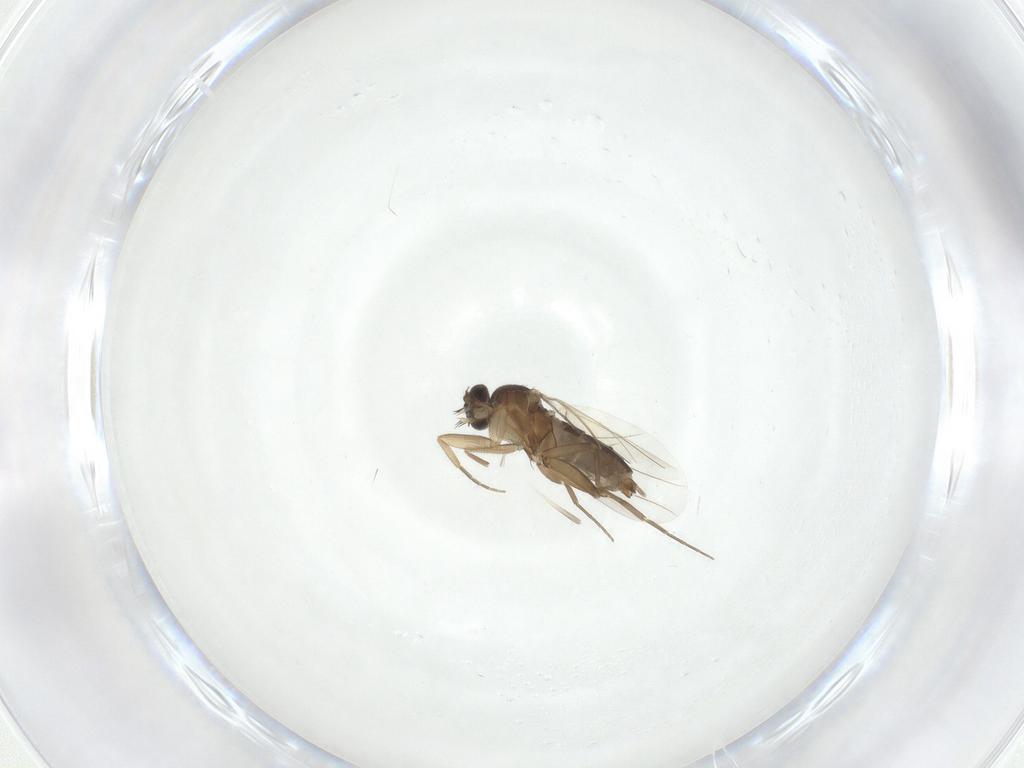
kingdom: Animalia
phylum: Arthropoda
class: Insecta
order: Diptera
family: Phoridae
